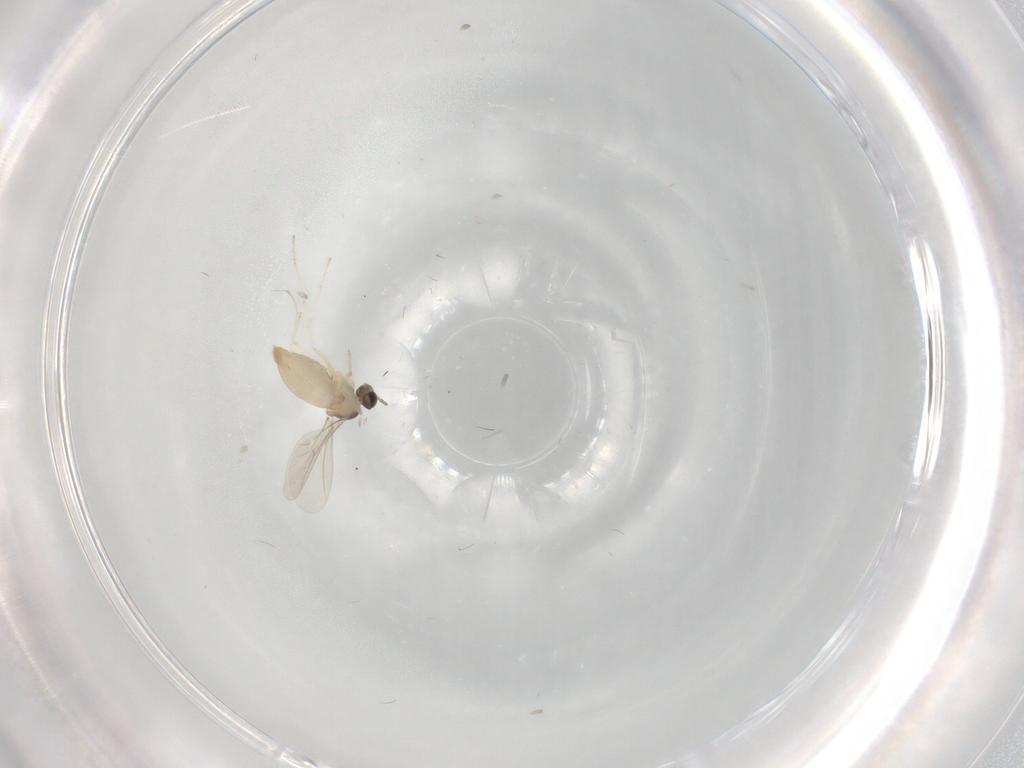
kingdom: Animalia
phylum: Arthropoda
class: Insecta
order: Diptera
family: Cecidomyiidae
